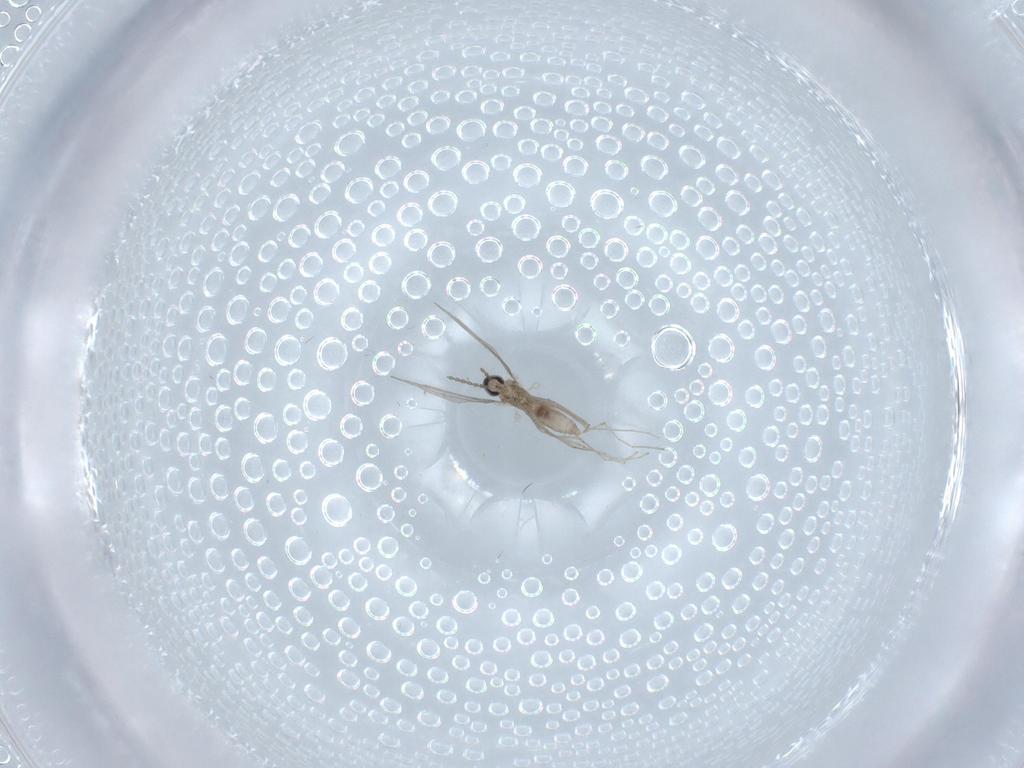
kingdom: Animalia
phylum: Arthropoda
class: Insecta
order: Diptera
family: Cecidomyiidae
